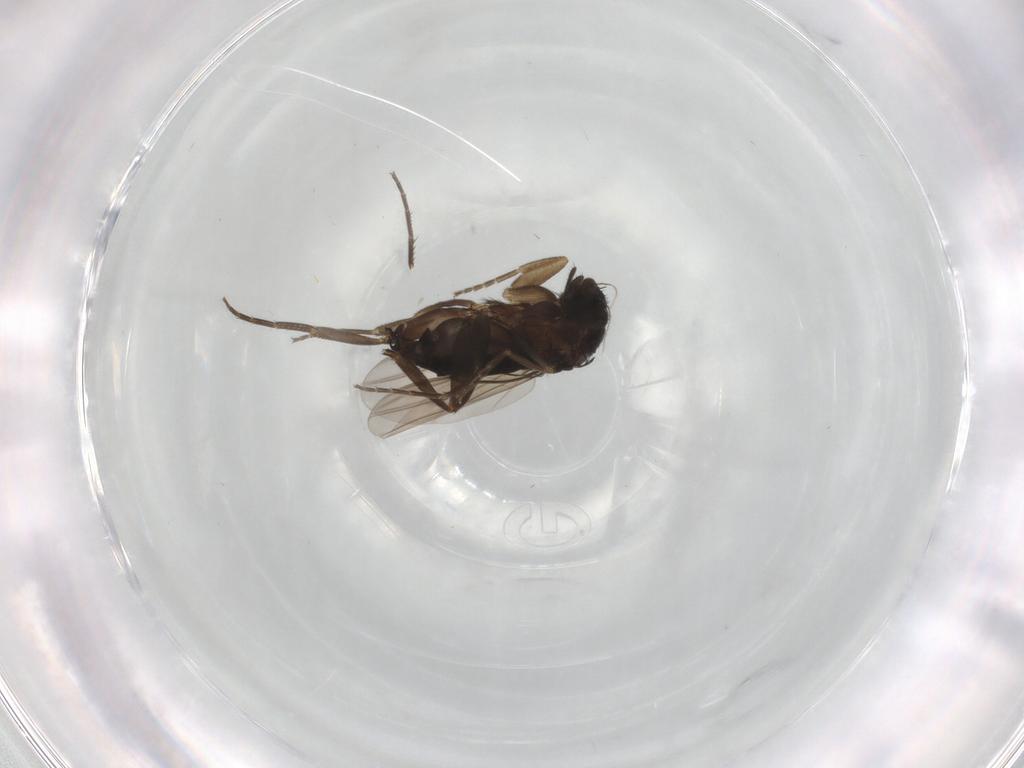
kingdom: Animalia
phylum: Arthropoda
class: Insecta
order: Diptera
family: Phoridae
